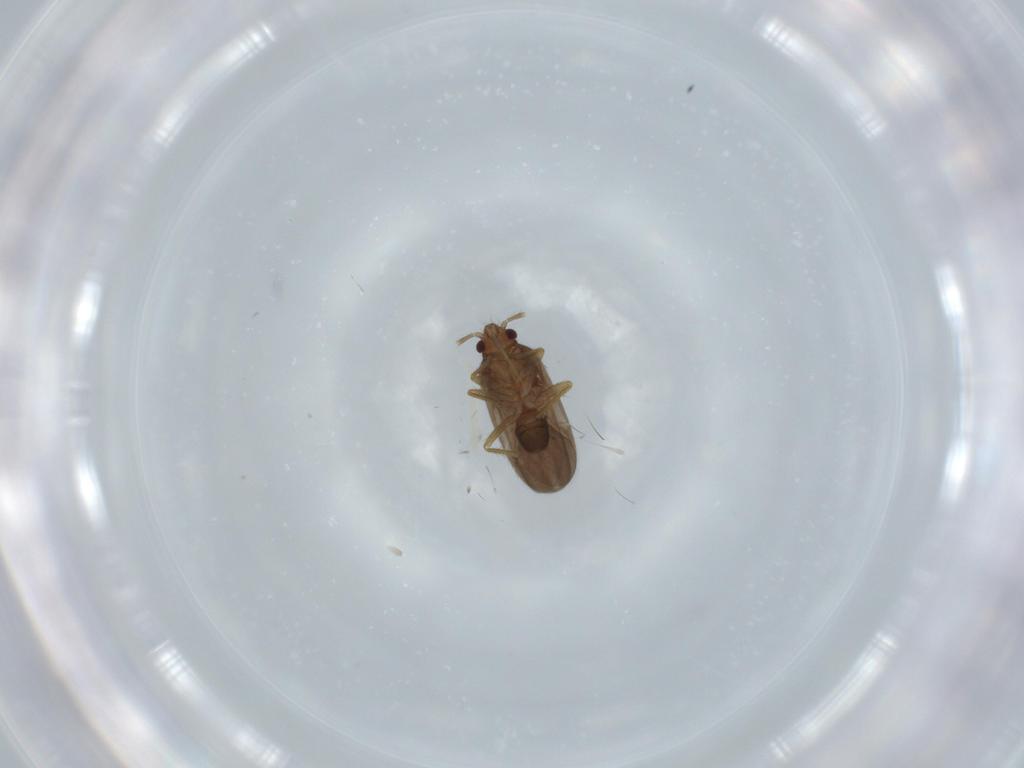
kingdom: Animalia
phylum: Arthropoda
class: Insecta
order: Hemiptera
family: Ceratocombidae
